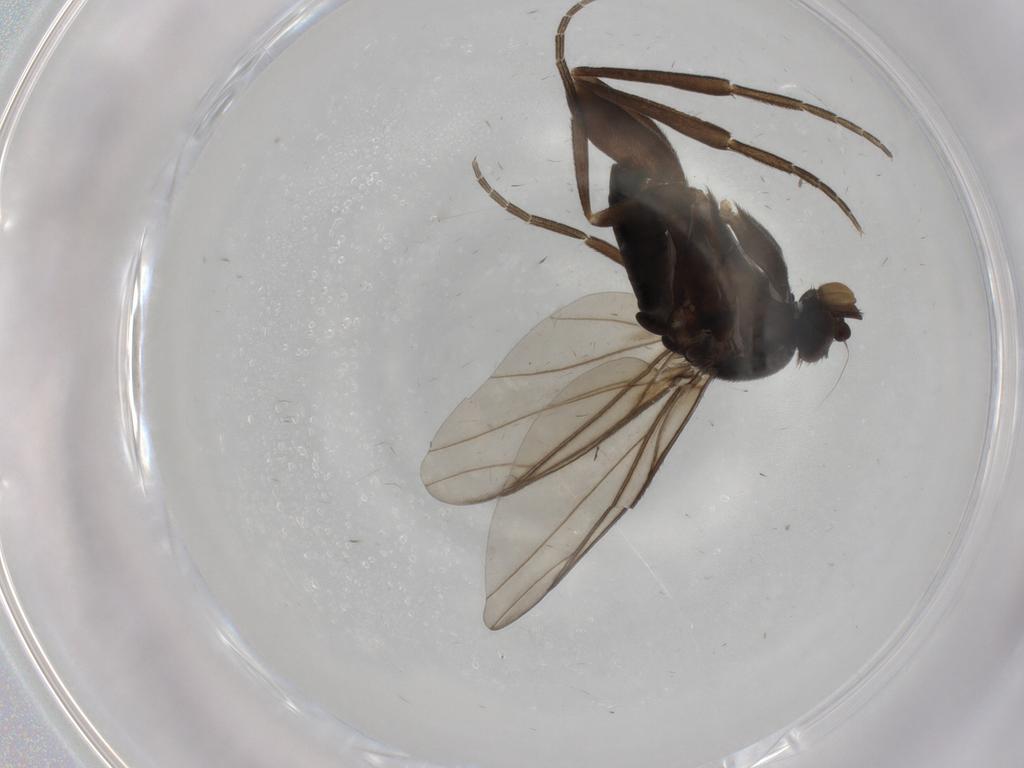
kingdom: Animalia
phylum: Arthropoda
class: Insecta
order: Diptera
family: Phoridae
